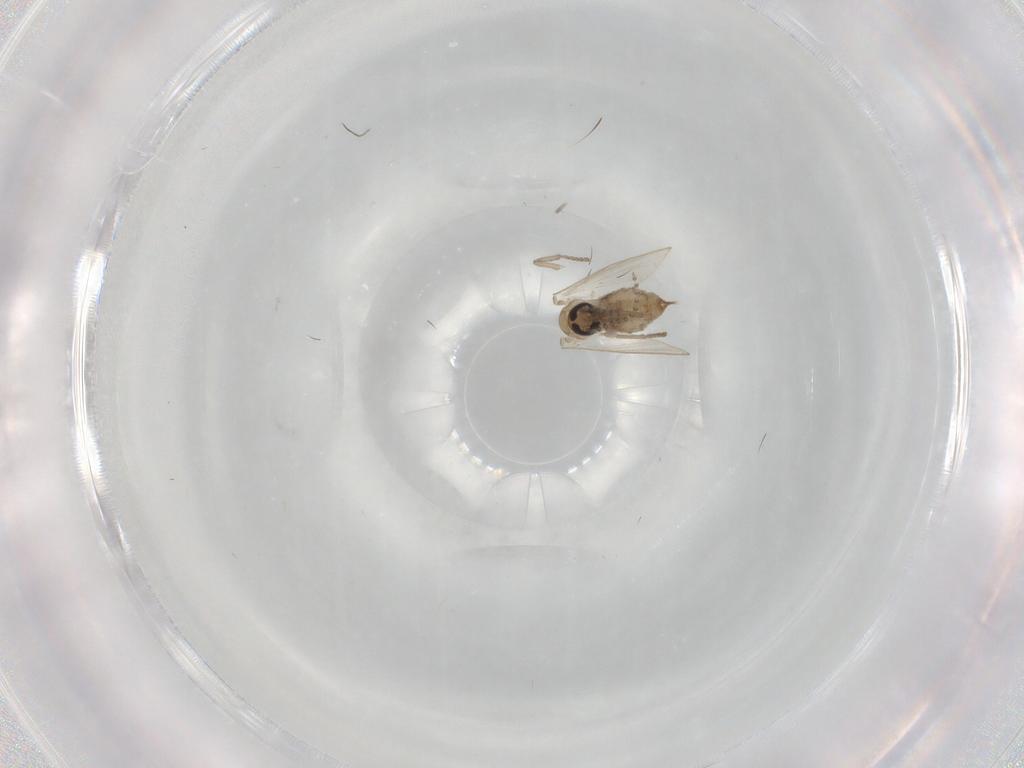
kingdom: Animalia
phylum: Arthropoda
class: Insecta
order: Diptera
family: Psychodidae
